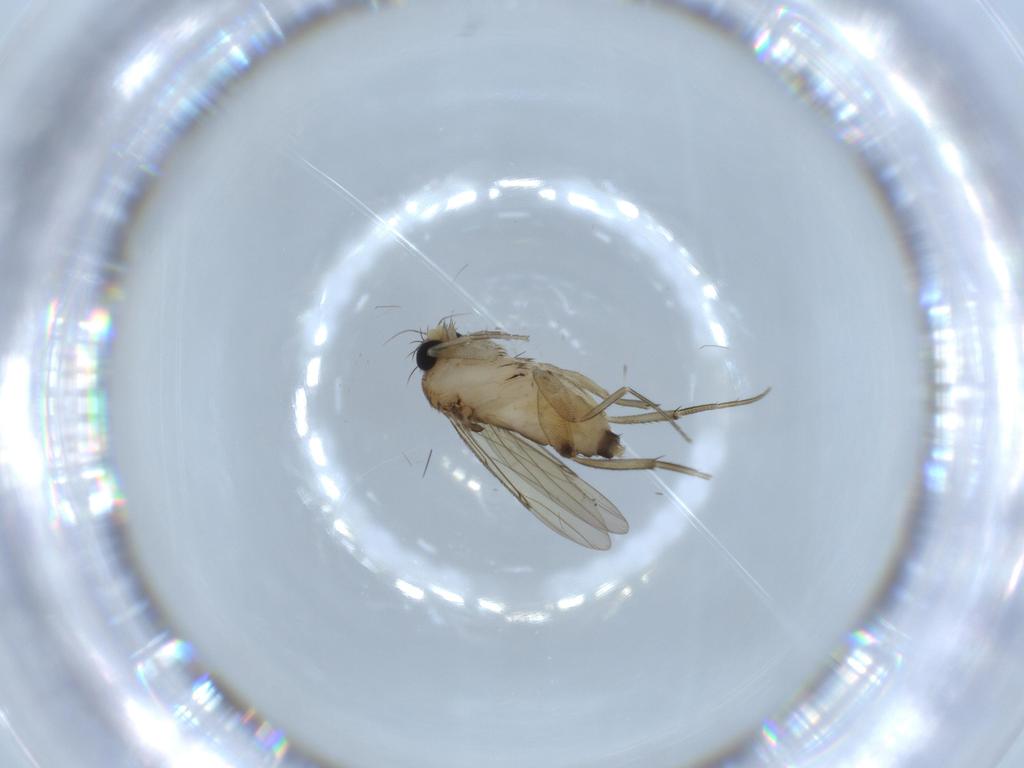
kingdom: Animalia
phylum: Arthropoda
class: Insecta
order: Diptera
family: Phoridae
